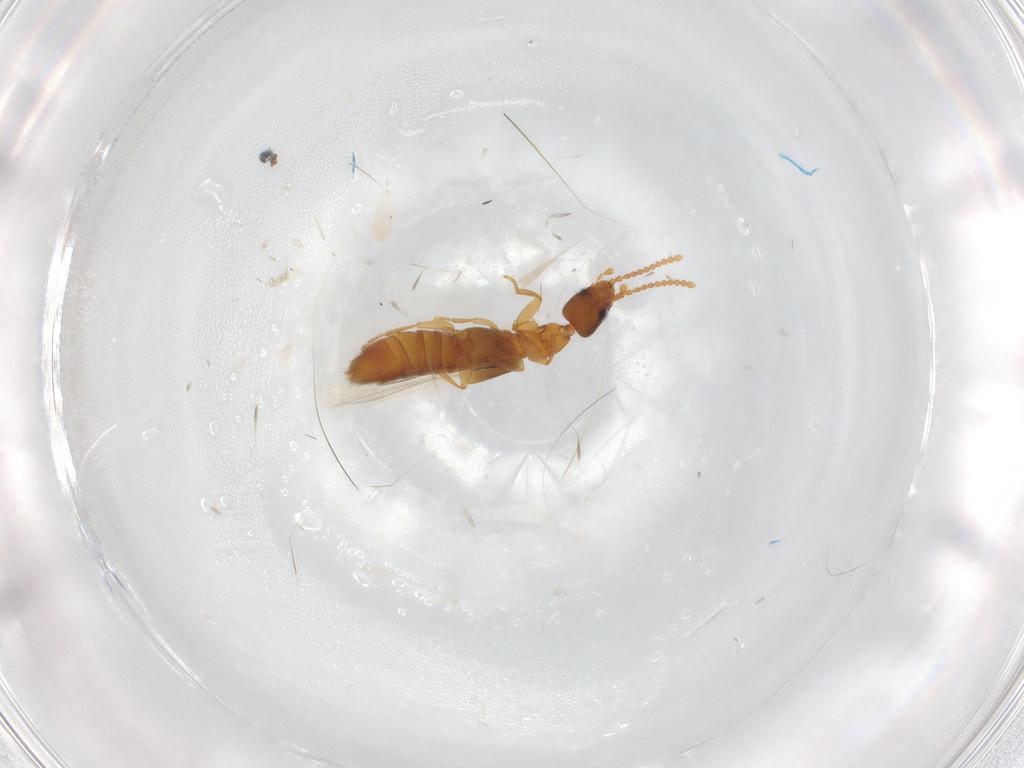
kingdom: Animalia
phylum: Arthropoda
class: Insecta
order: Coleoptera
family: Staphylinidae
